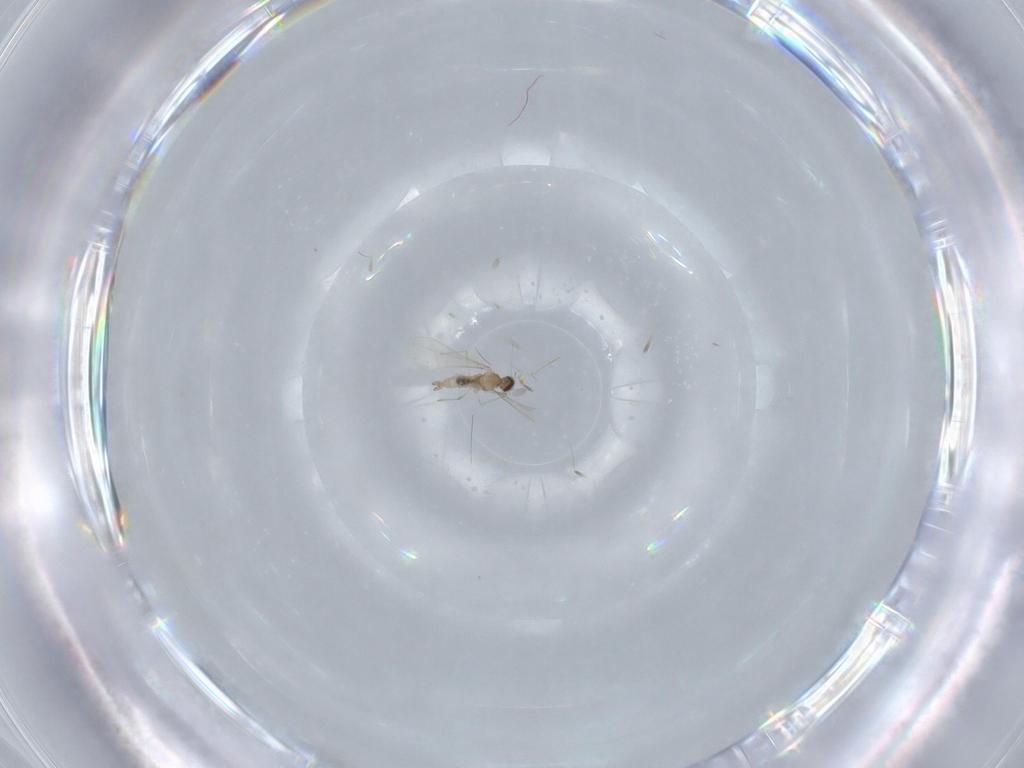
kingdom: Animalia
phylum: Arthropoda
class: Insecta
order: Diptera
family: Cecidomyiidae
